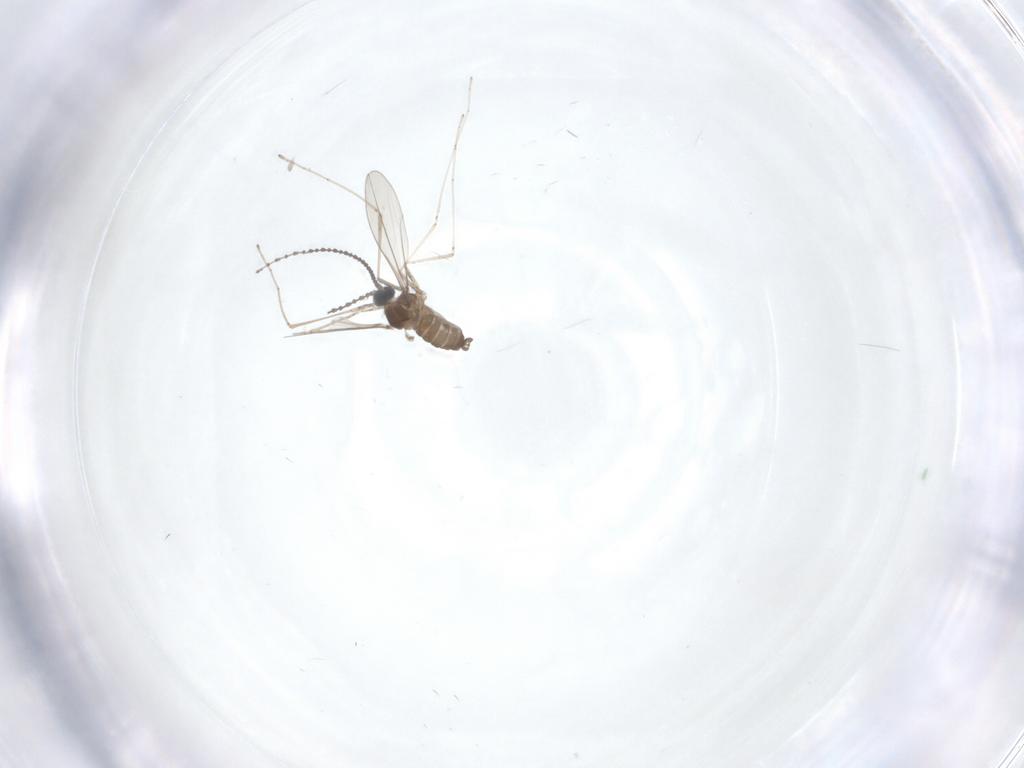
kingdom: Animalia
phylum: Arthropoda
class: Insecta
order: Diptera
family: Cecidomyiidae
